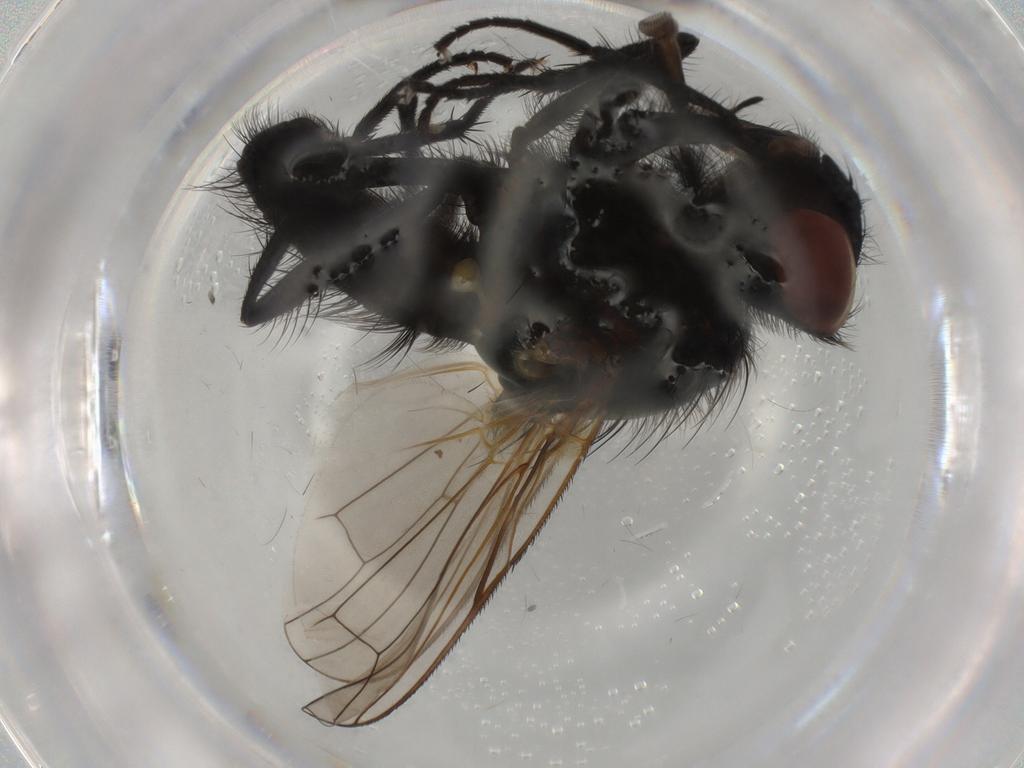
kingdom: Animalia
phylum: Arthropoda
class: Insecta
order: Diptera
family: Anthomyiidae
